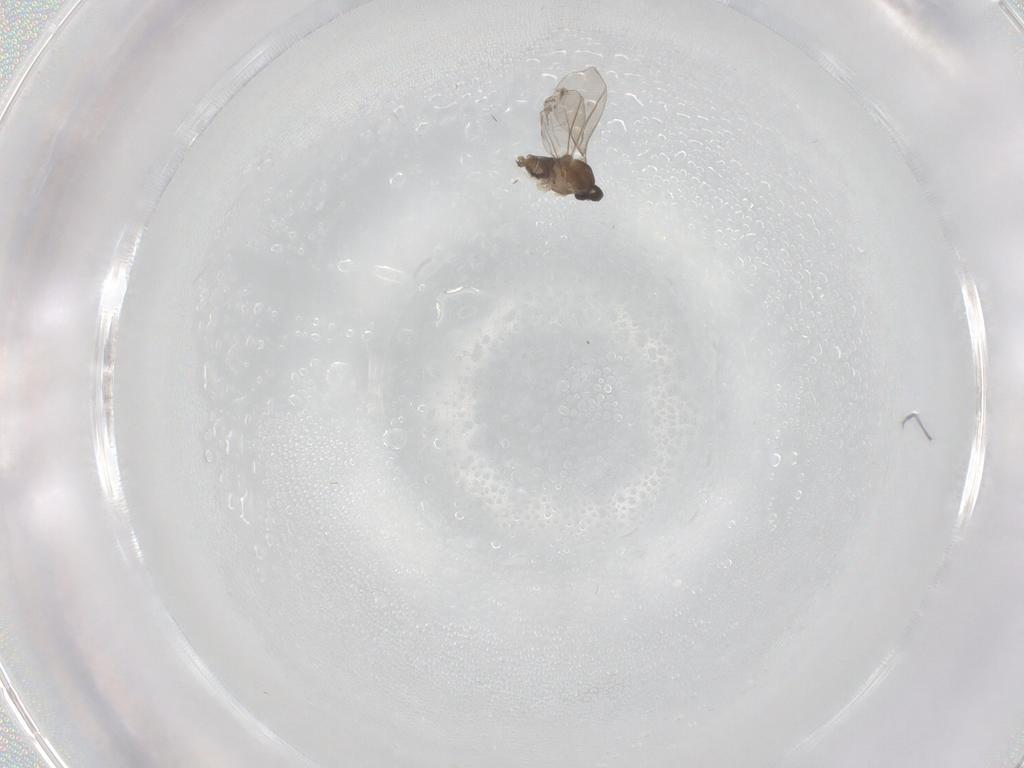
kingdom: Animalia
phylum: Arthropoda
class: Insecta
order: Diptera
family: Cecidomyiidae
